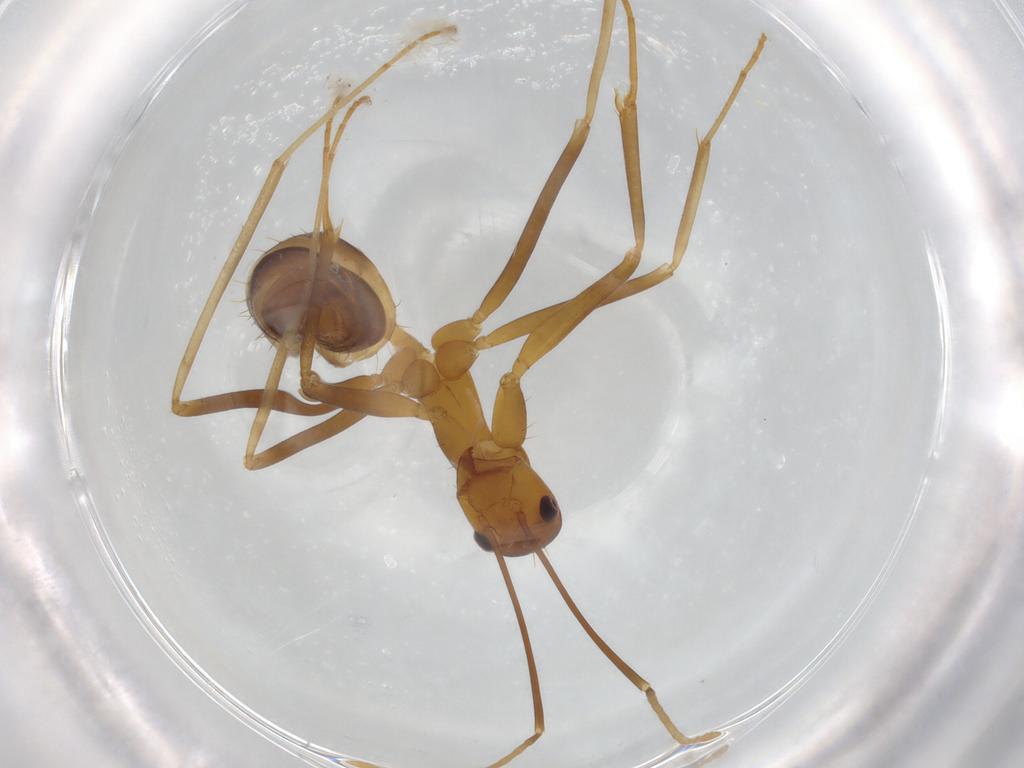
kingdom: Animalia
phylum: Arthropoda
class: Insecta
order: Hymenoptera
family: Formicidae
